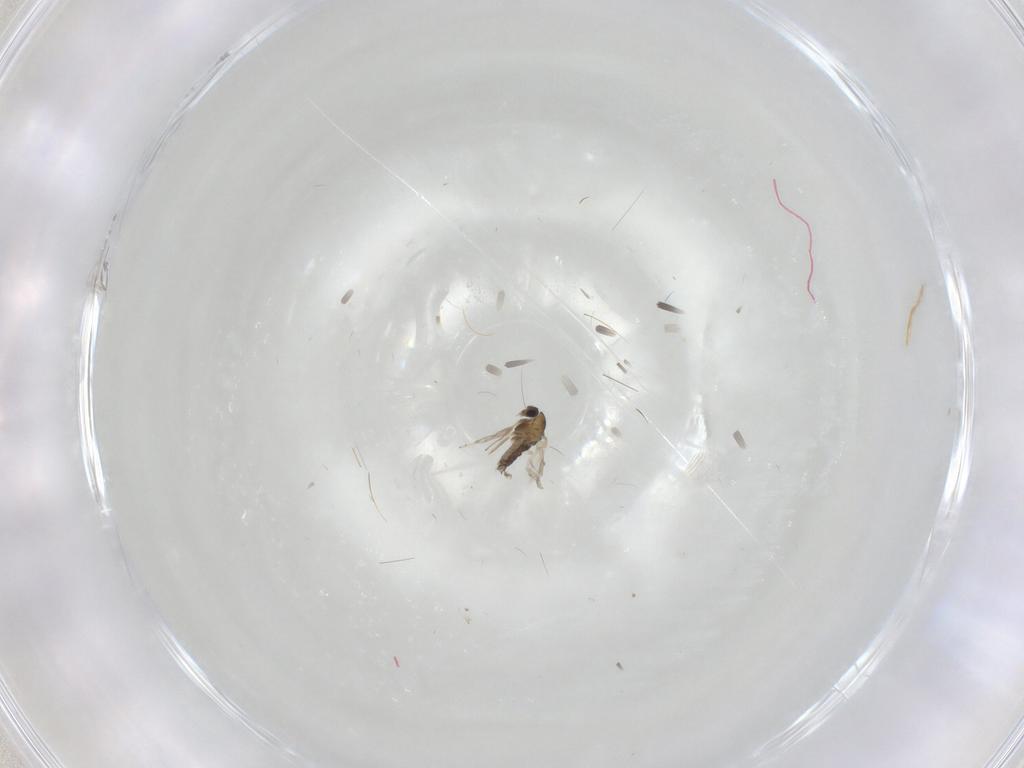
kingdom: Animalia
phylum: Arthropoda
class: Insecta
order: Diptera
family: Chironomidae
